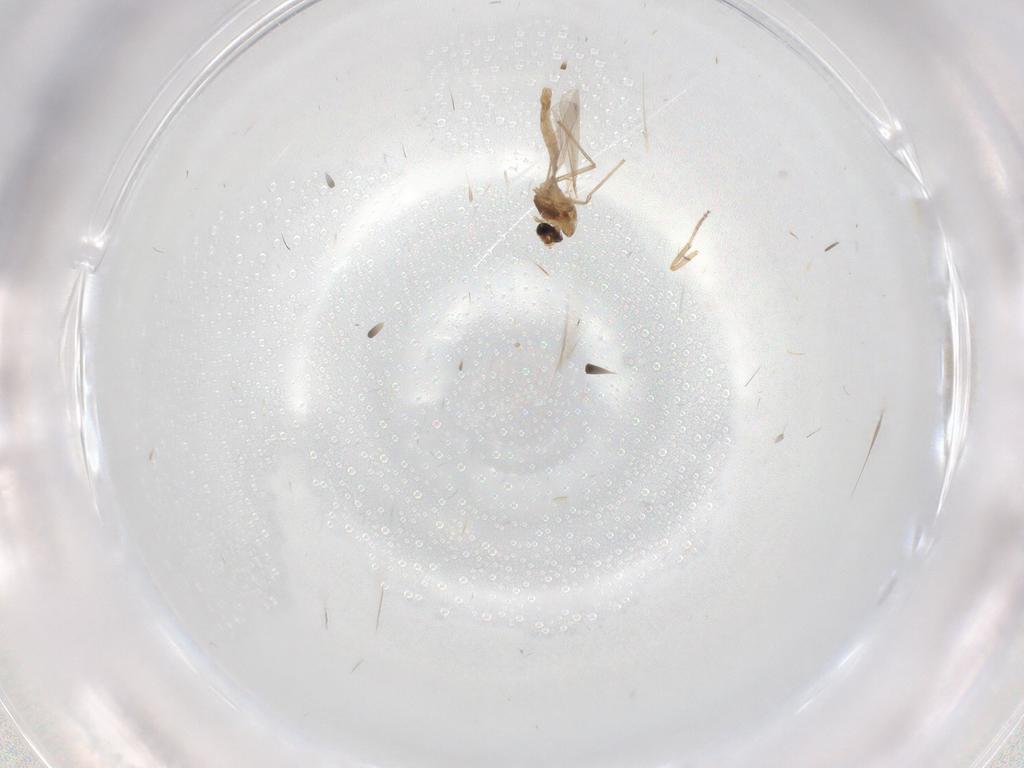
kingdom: Animalia
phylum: Arthropoda
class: Insecta
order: Diptera
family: Ceratopogonidae
